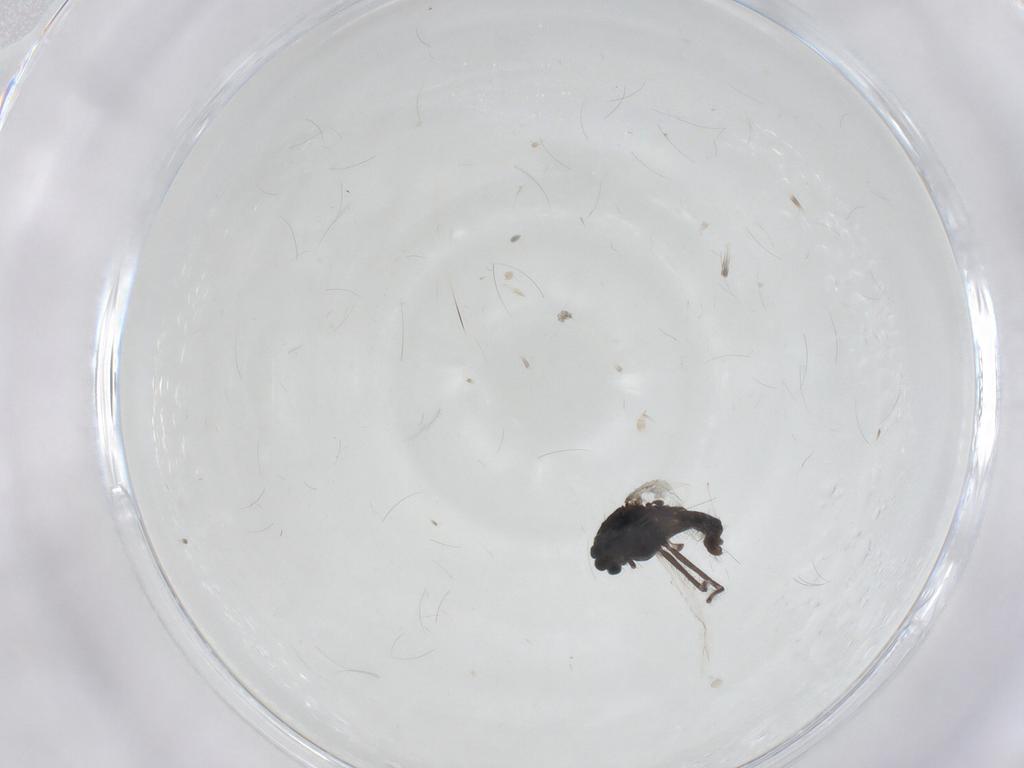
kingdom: Animalia
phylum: Arthropoda
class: Insecta
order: Diptera
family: Chironomidae
